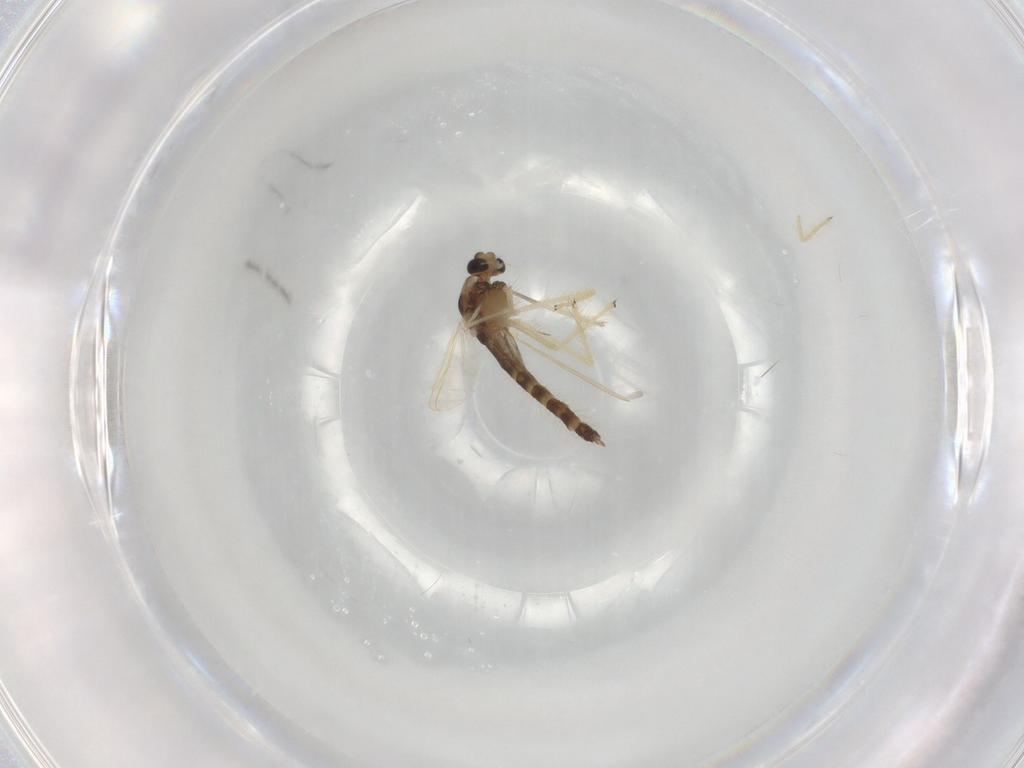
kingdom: Animalia
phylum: Arthropoda
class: Insecta
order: Diptera
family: Chironomidae
